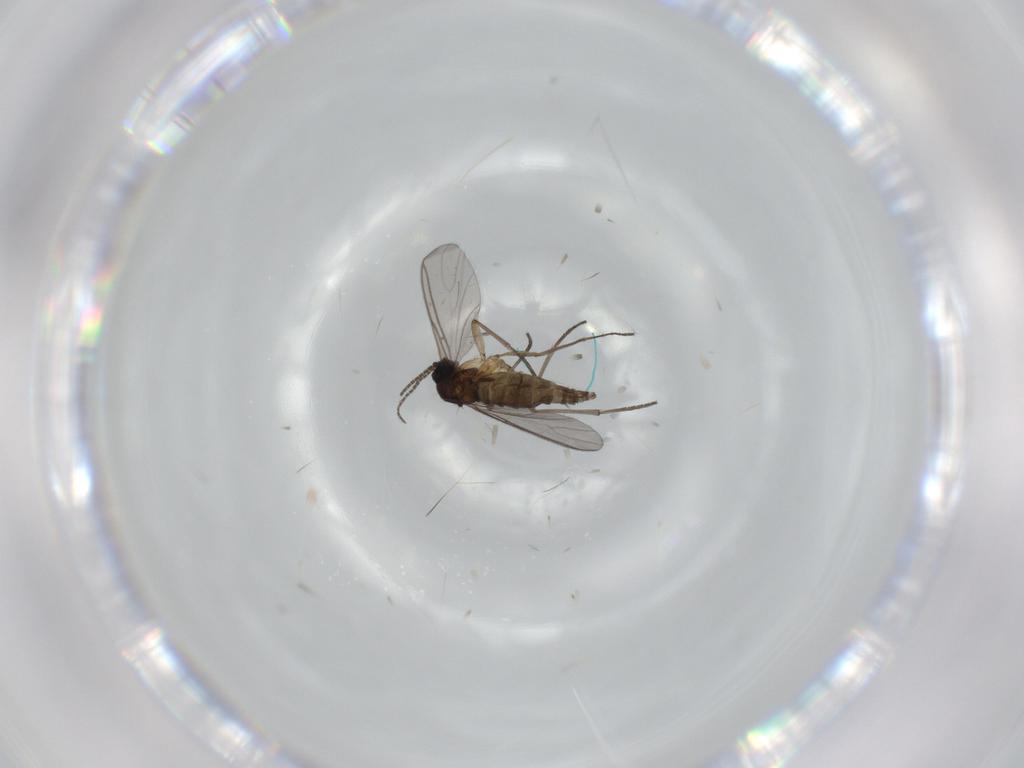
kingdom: Animalia
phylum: Arthropoda
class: Insecta
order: Diptera
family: Sciaridae
